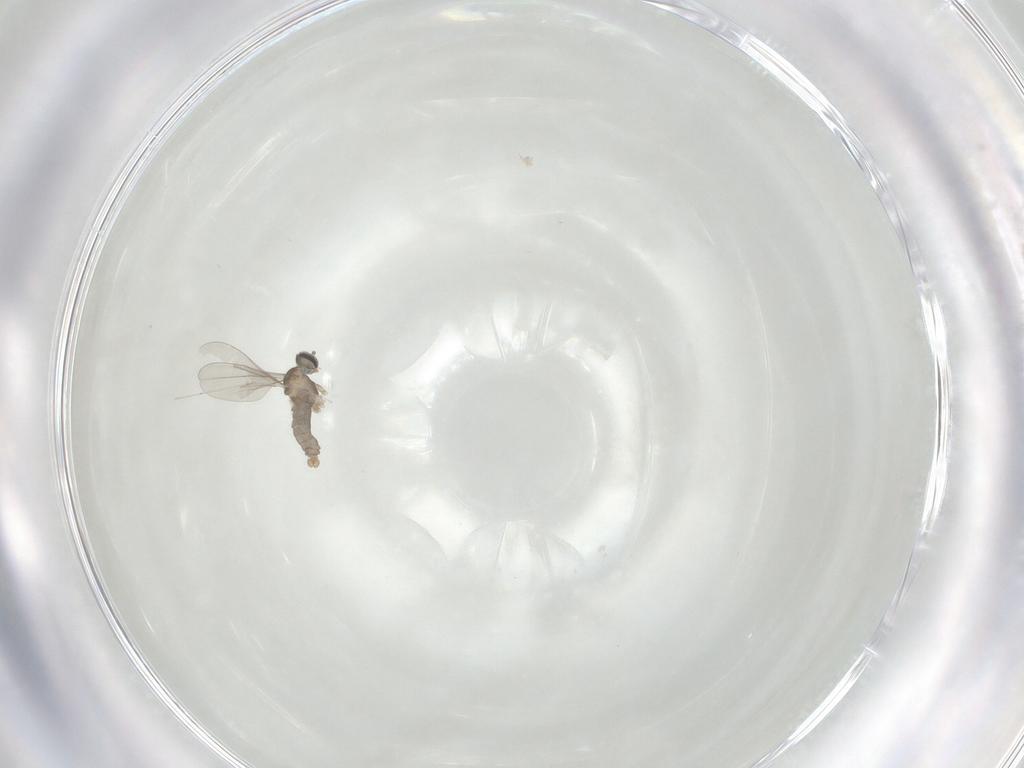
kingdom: Animalia
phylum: Arthropoda
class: Insecta
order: Diptera
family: Cecidomyiidae
